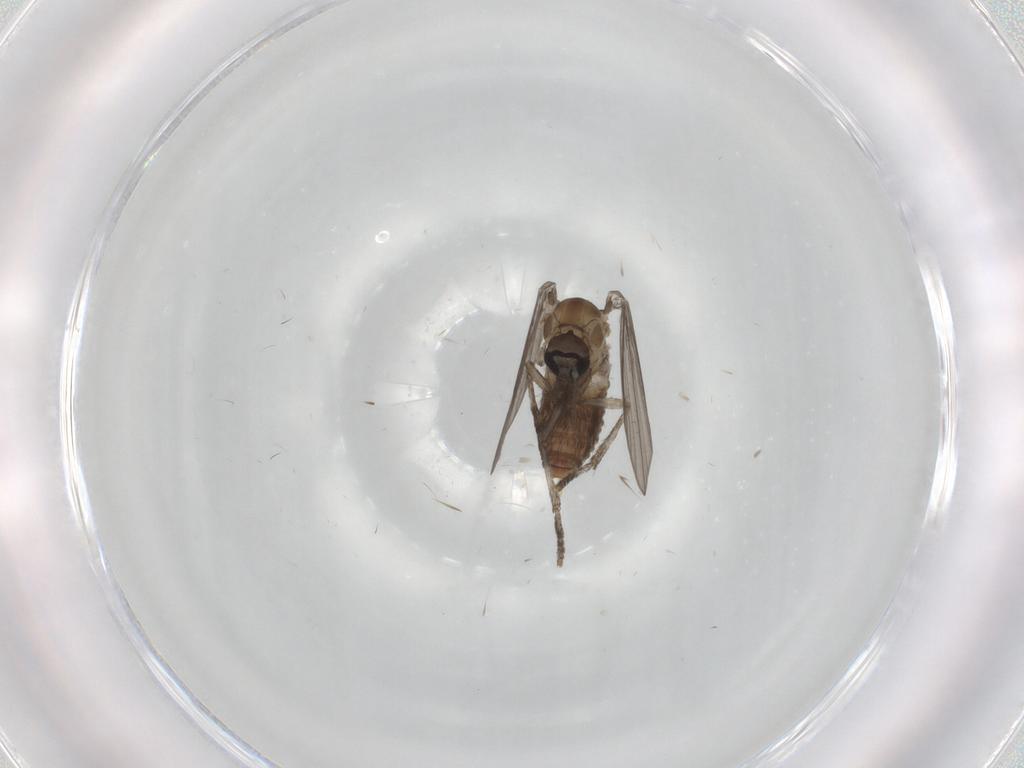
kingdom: Animalia
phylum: Arthropoda
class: Insecta
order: Diptera
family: Psychodidae
